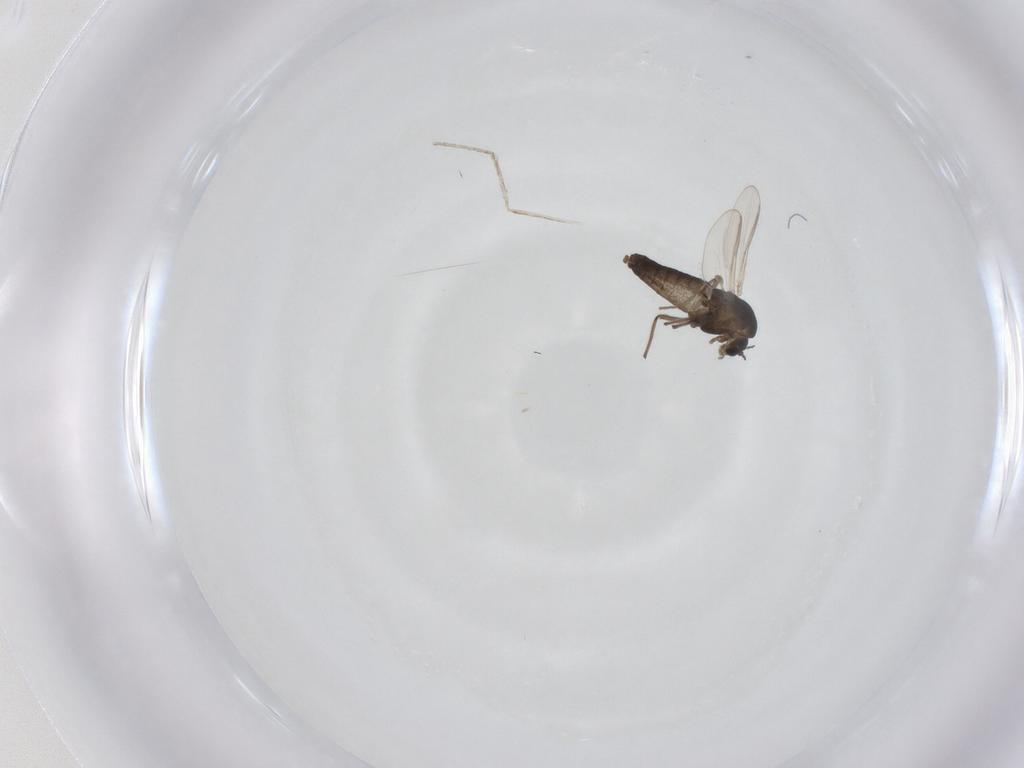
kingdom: Animalia
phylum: Arthropoda
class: Insecta
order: Diptera
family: Chironomidae
